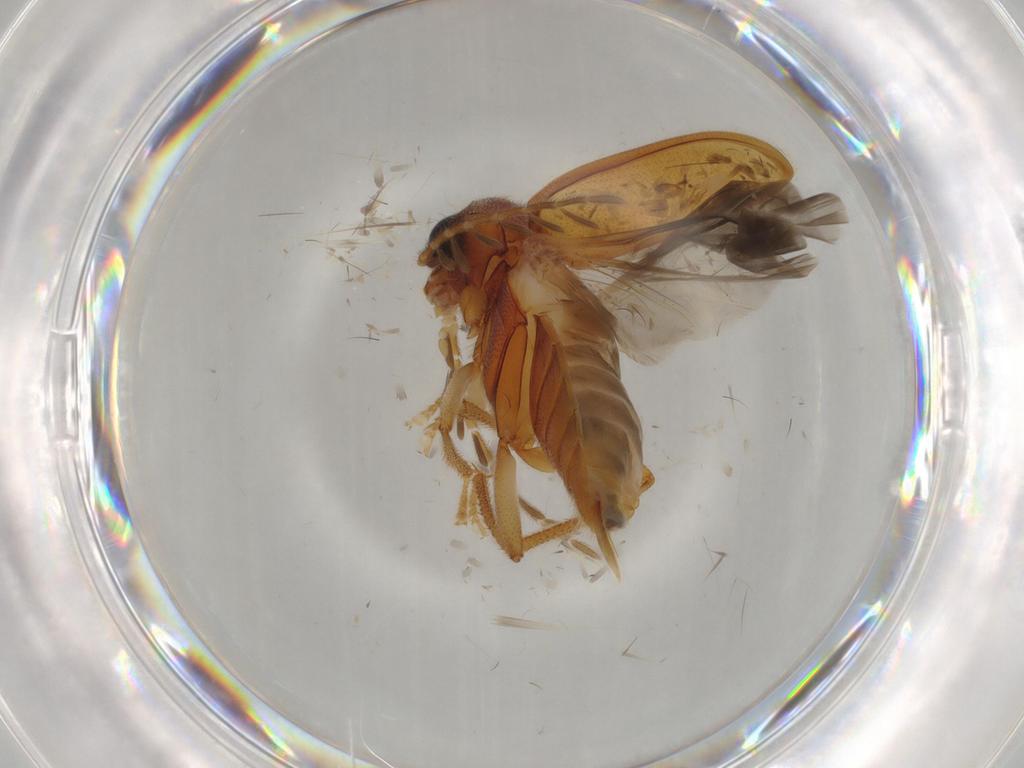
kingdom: Animalia
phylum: Arthropoda
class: Insecta
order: Coleoptera
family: Ptilodactylidae
